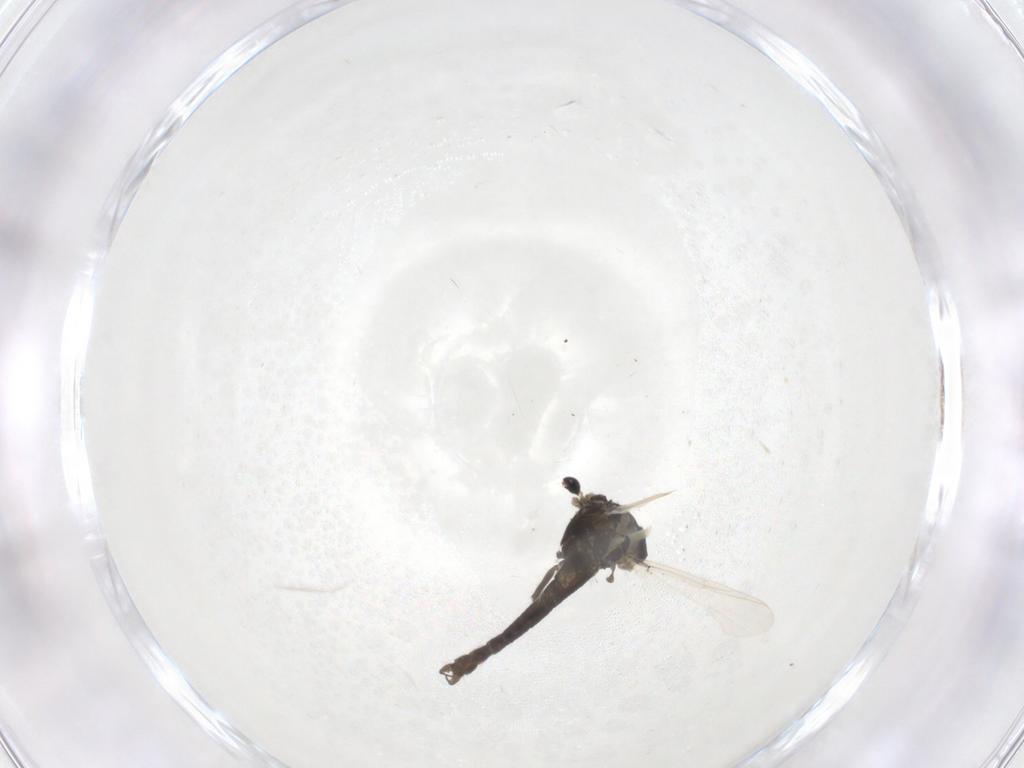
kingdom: Animalia
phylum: Arthropoda
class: Insecta
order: Diptera
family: Chironomidae
